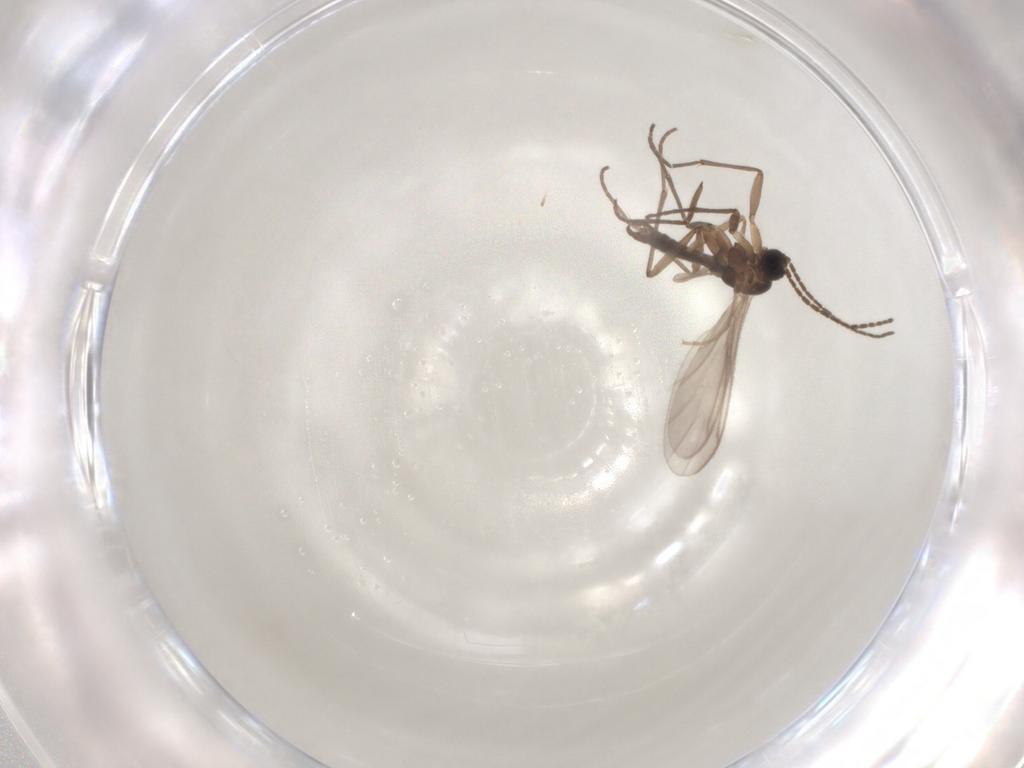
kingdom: Animalia
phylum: Arthropoda
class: Insecta
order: Diptera
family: Sciaridae
